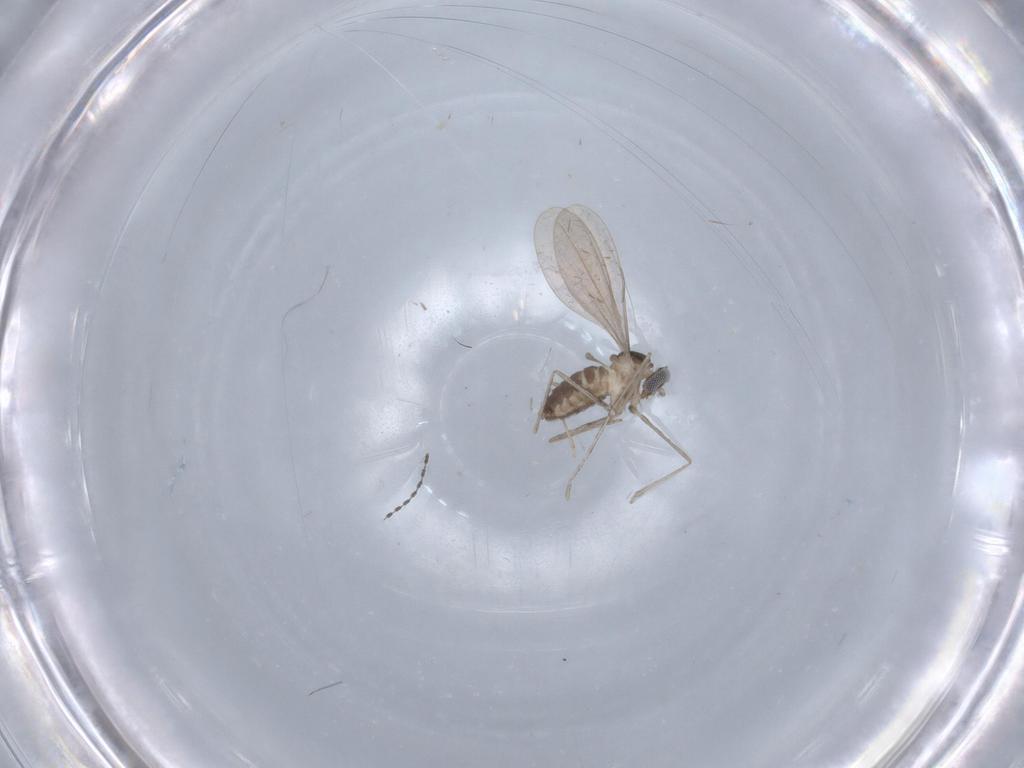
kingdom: Animalia
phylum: Arthropoda
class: Insecta
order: Diptera
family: Cecidomyiidae
